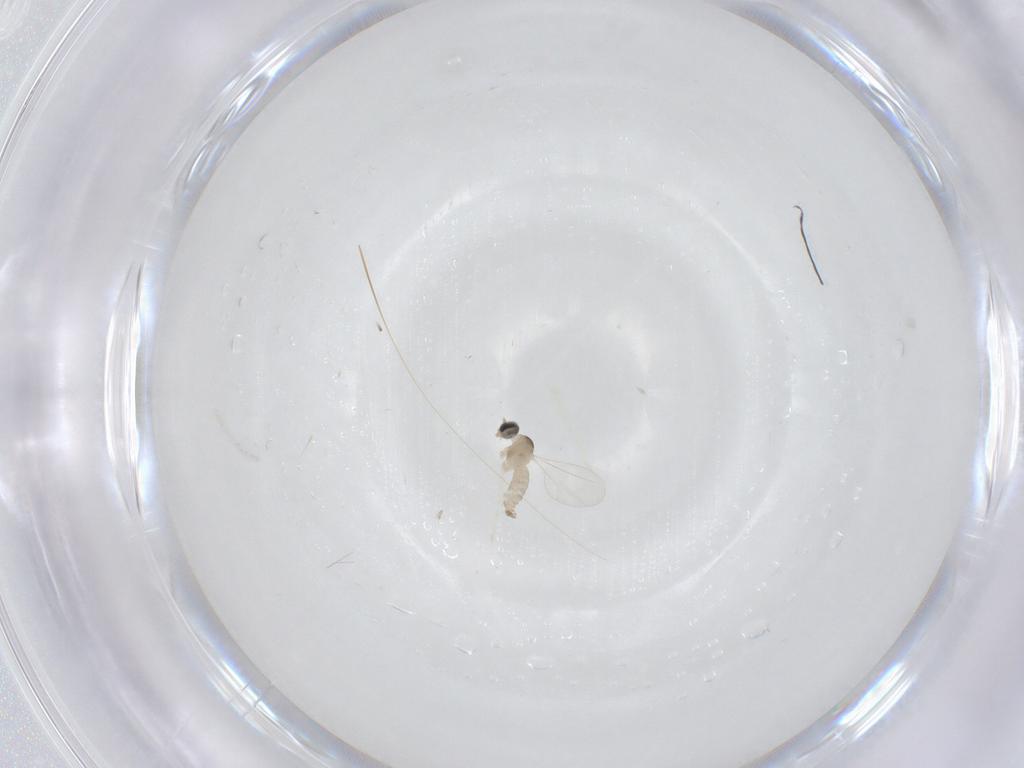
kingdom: Animalia
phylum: Arthropoda
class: Insecta
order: Diptera
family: Cecidomyiidae
